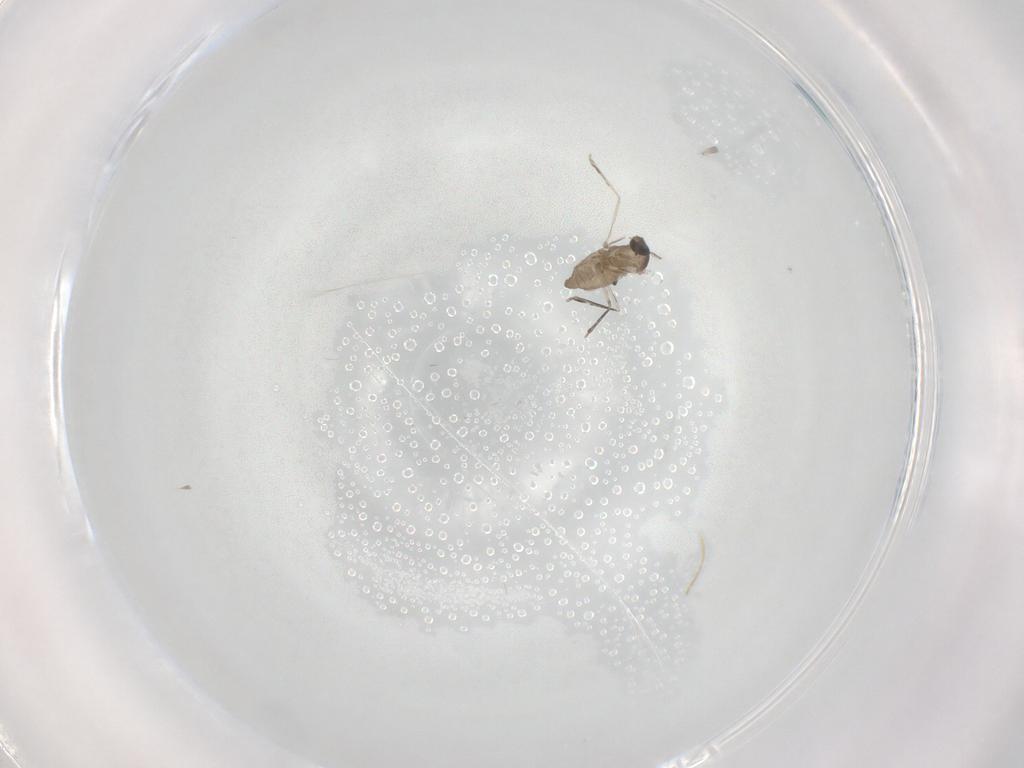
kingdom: Animalia
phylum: Arthropoda
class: Insecta
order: Diptera
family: Cecidomyiidae
